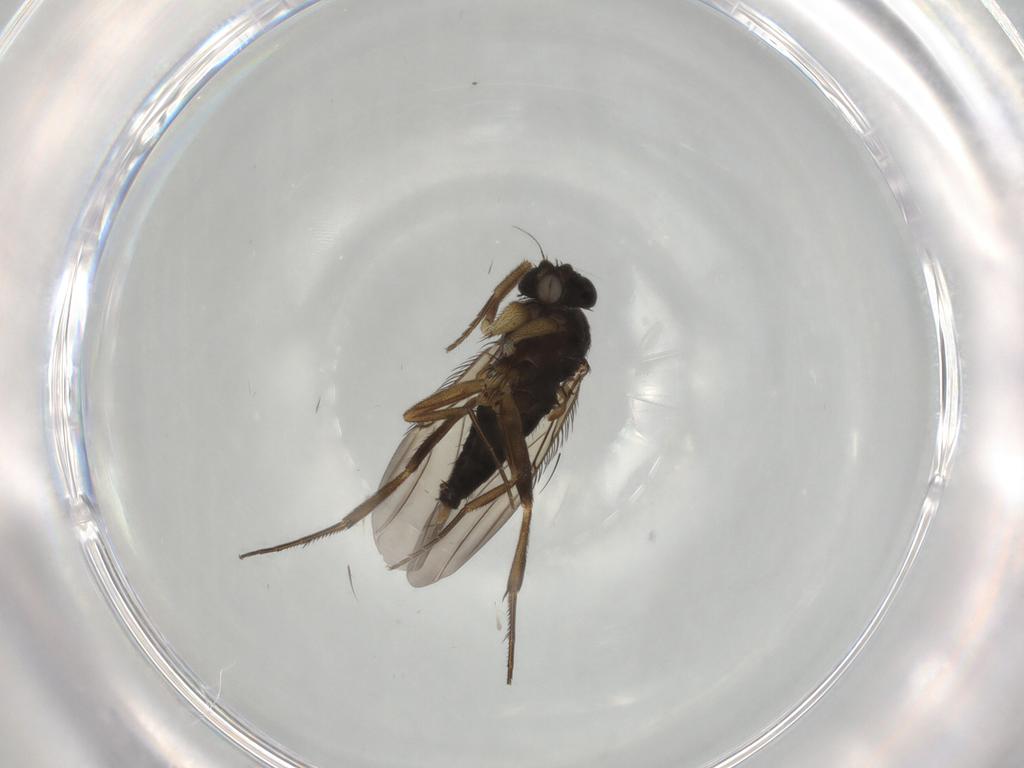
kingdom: Animalia
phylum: Arthropoda
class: Insecta
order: Diptera
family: Phoridae
